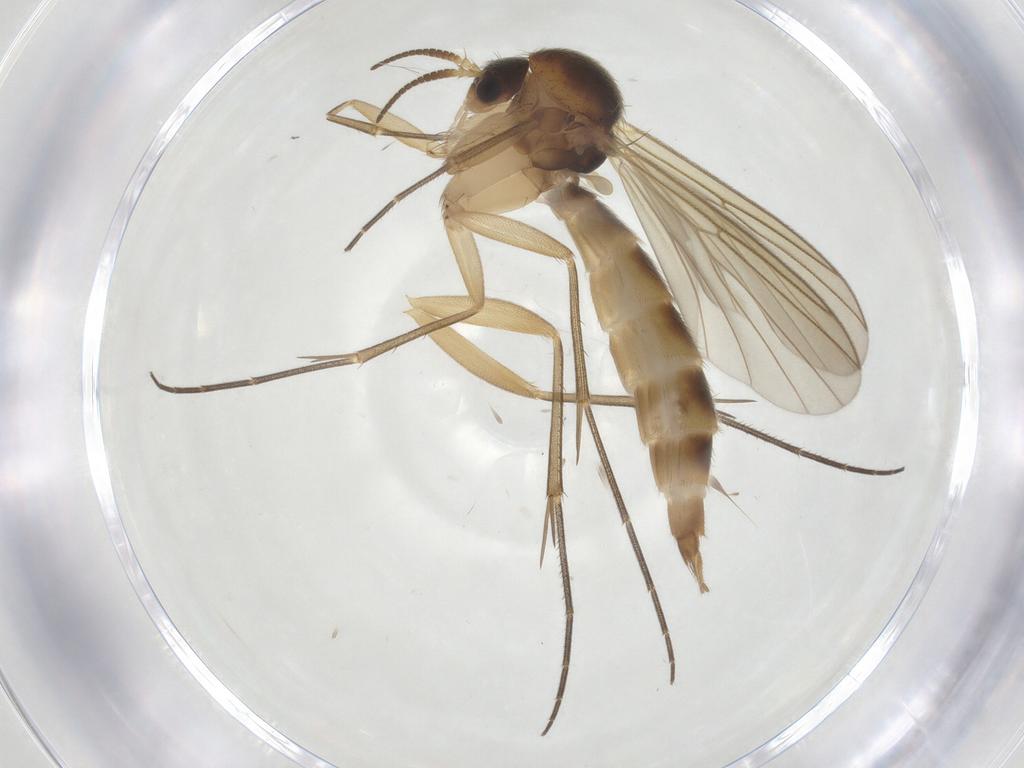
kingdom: Animalia
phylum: Arthropoda
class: Insecta
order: Diptera
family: Mycetophilidae
